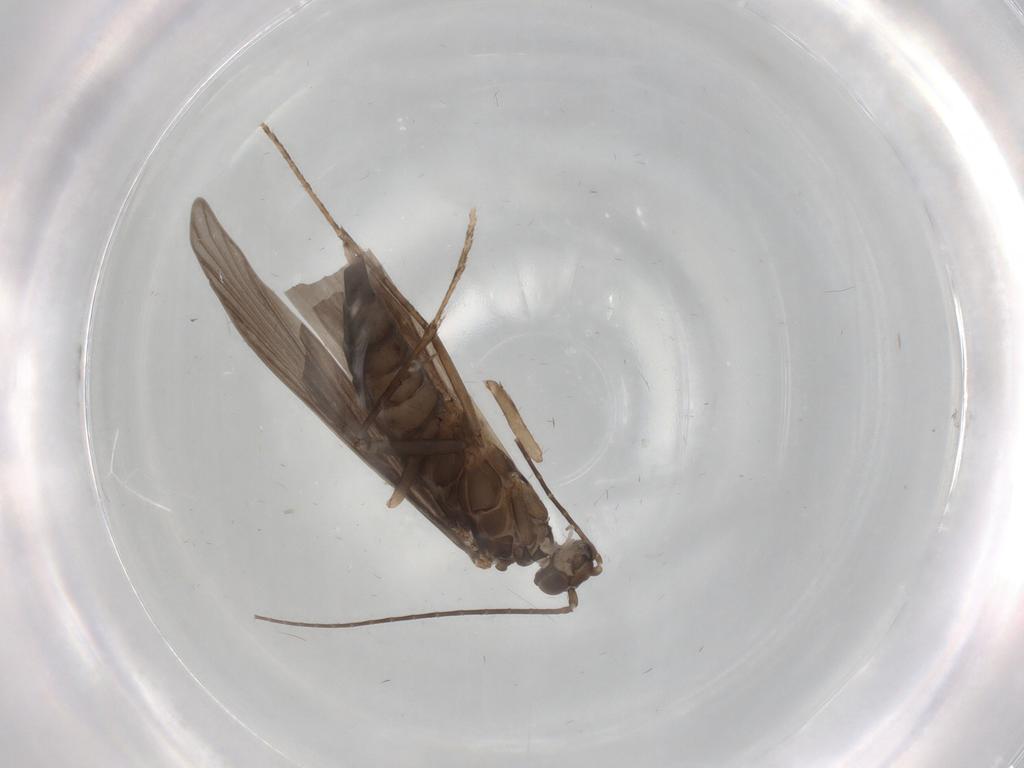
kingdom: Animalia
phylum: Arthropoda
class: Insecta
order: Trichoptera
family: Xiphocentronidae
